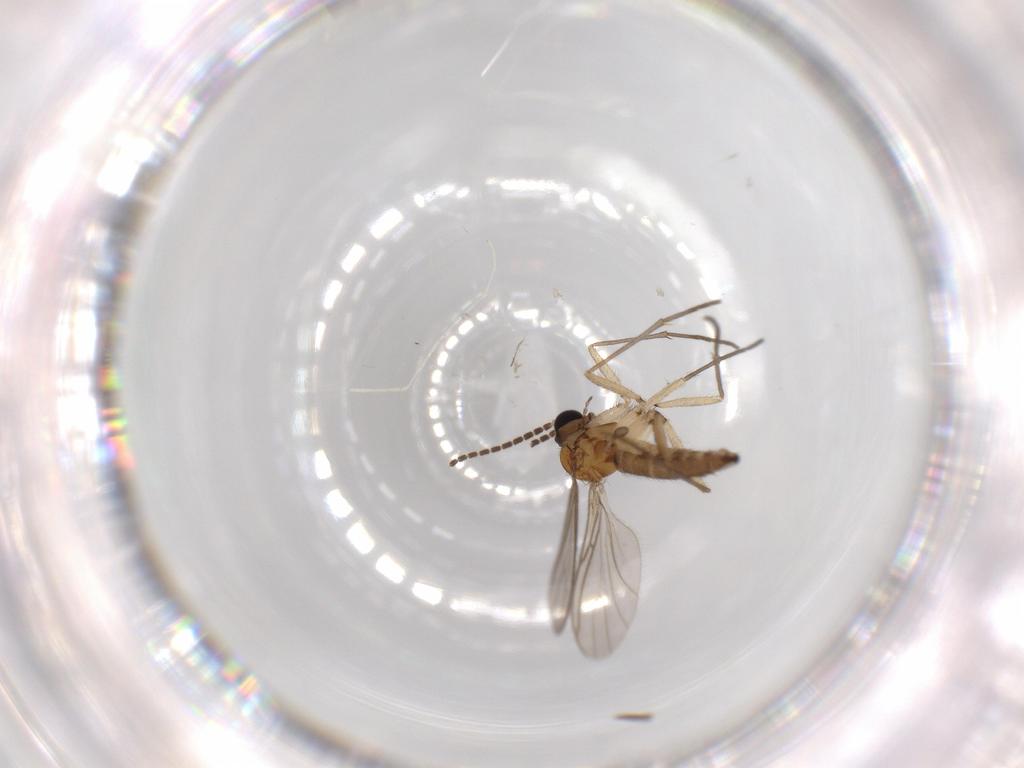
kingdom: Animalia
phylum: Arthropoda
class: Insecta
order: Diptera
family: Sciaridae
